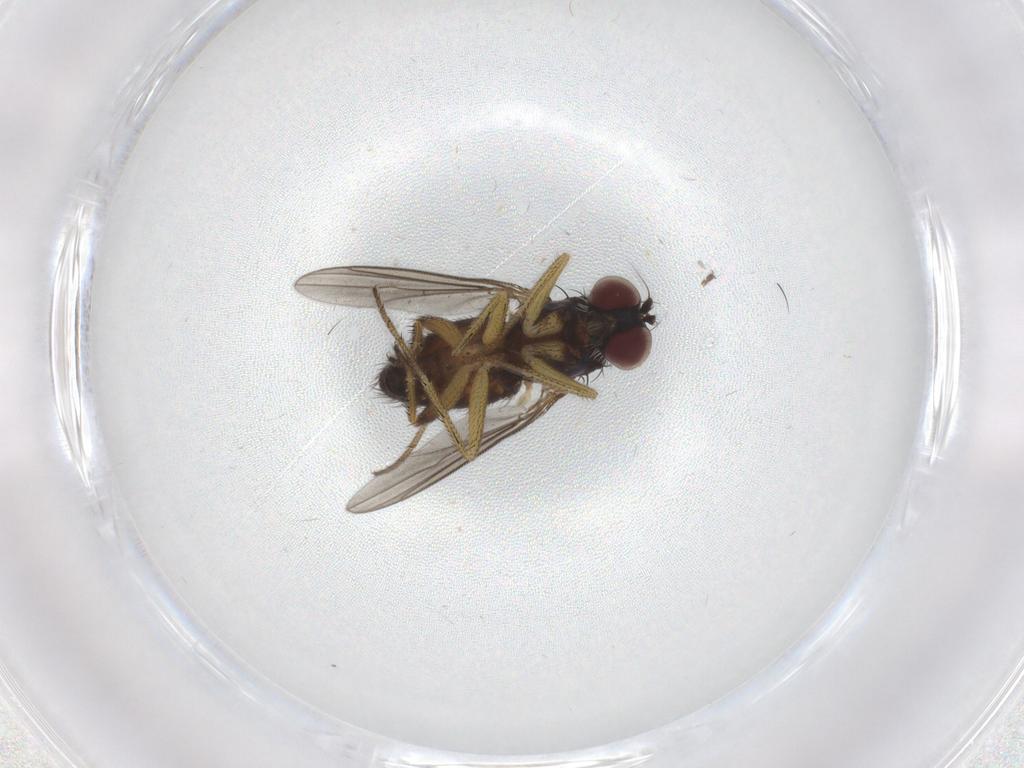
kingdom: Animalia
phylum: Arthropoda
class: Insecta
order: Diptera
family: Dolichopodidae
